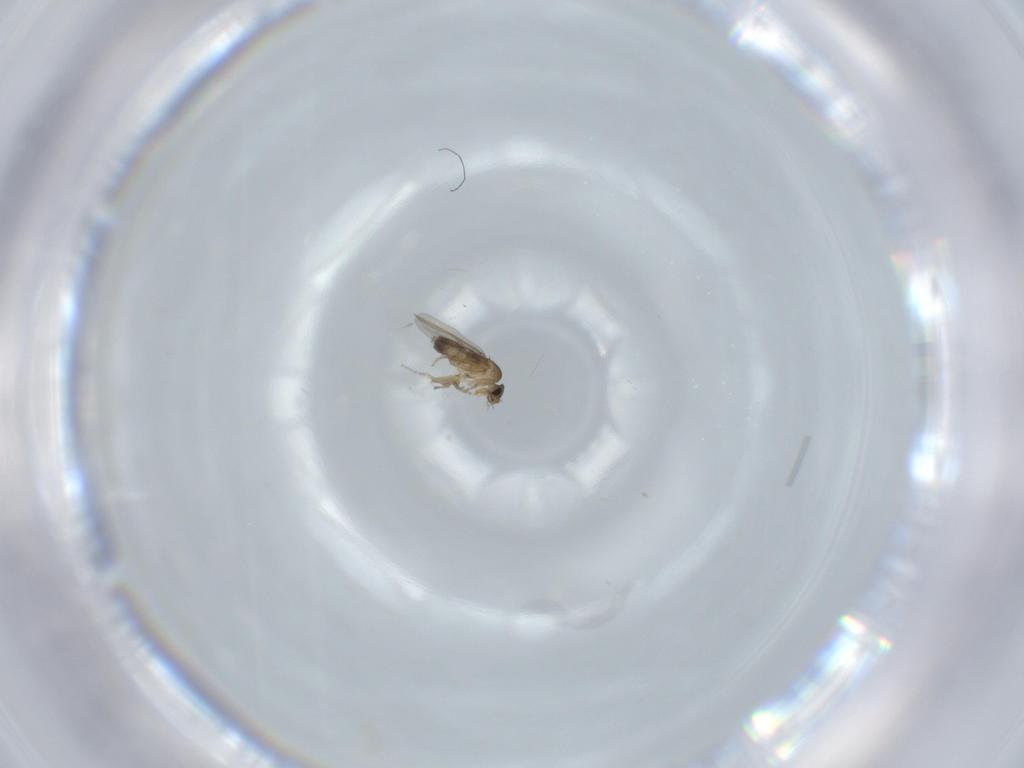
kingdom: Animalia
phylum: Arthropoda
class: Insecta
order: Diptera
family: Phoridae
